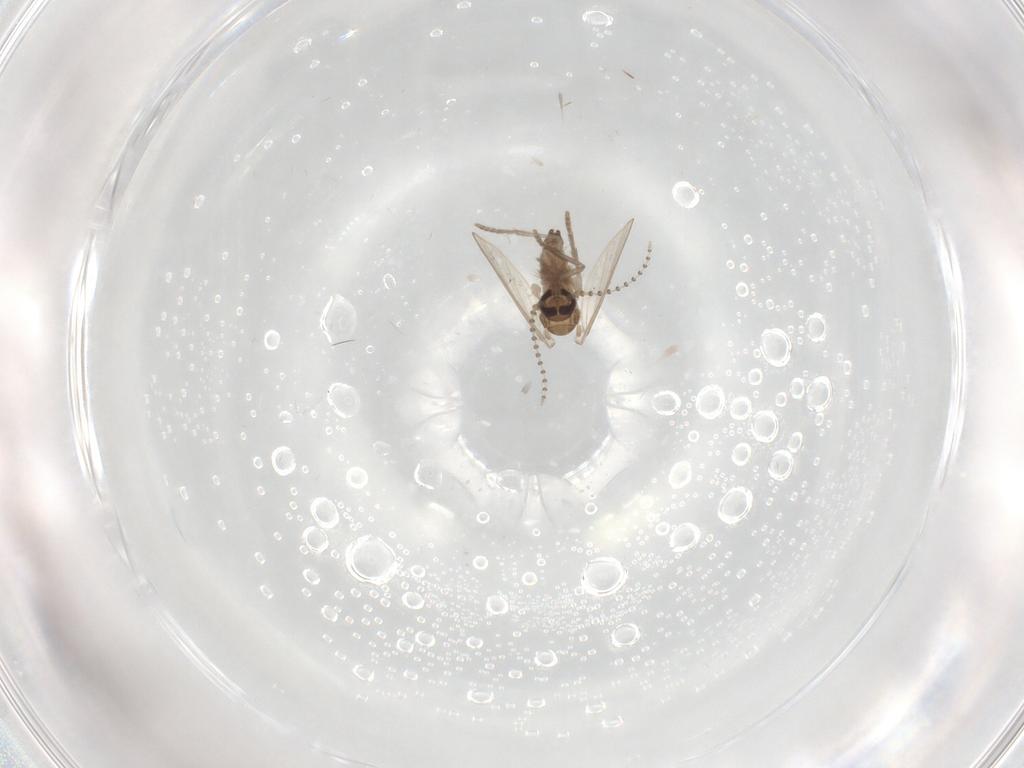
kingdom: Animalia
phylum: Arthropoda
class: Insecta
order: Diptera
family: Psychodidae
